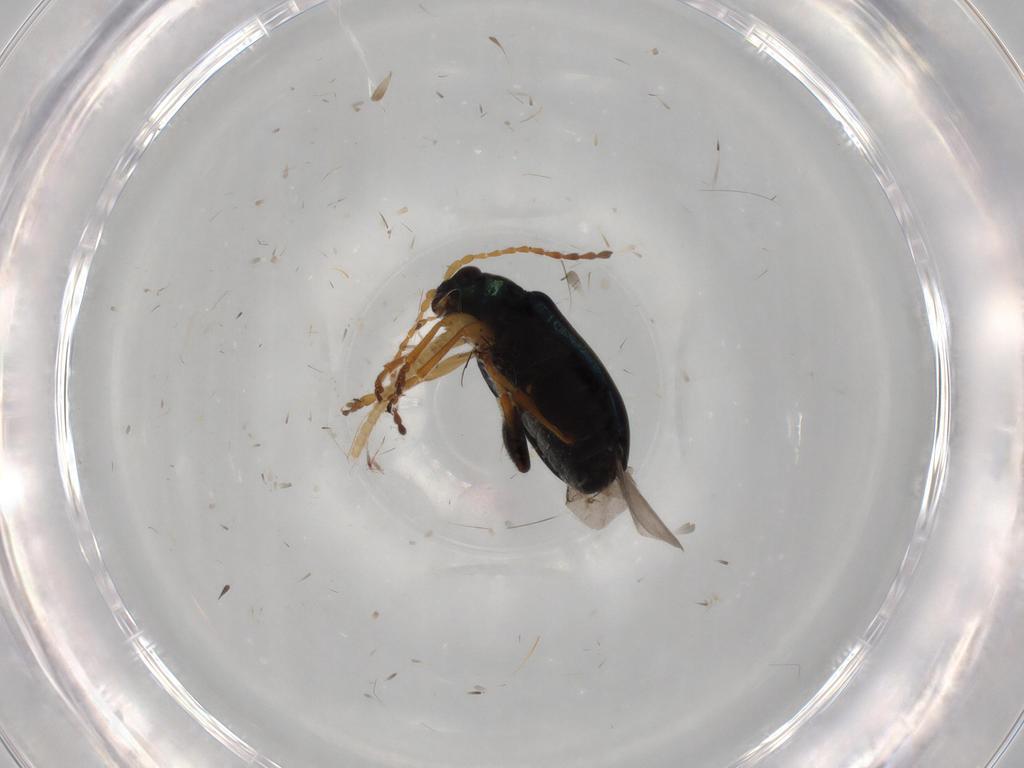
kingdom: Animalia
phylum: Arthropoda
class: Insecta
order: Coleoptera
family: Chrysomelidae
